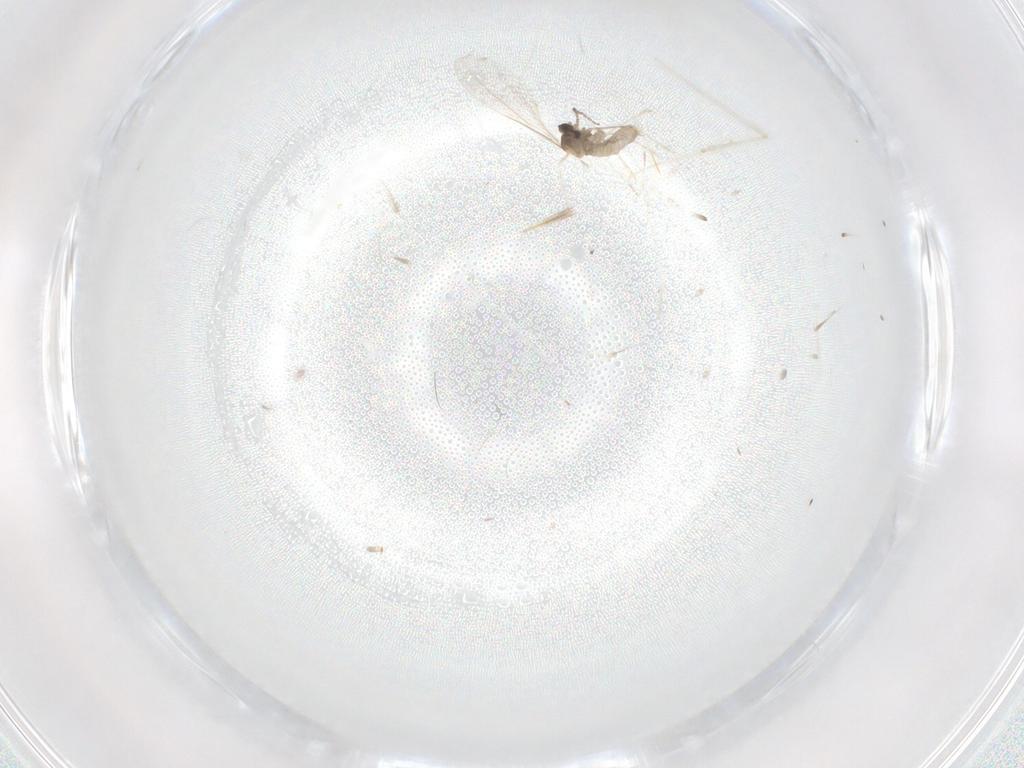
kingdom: Animalia
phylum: Arthropoda
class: Insecta
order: Diptera
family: Cecidomyiidae
